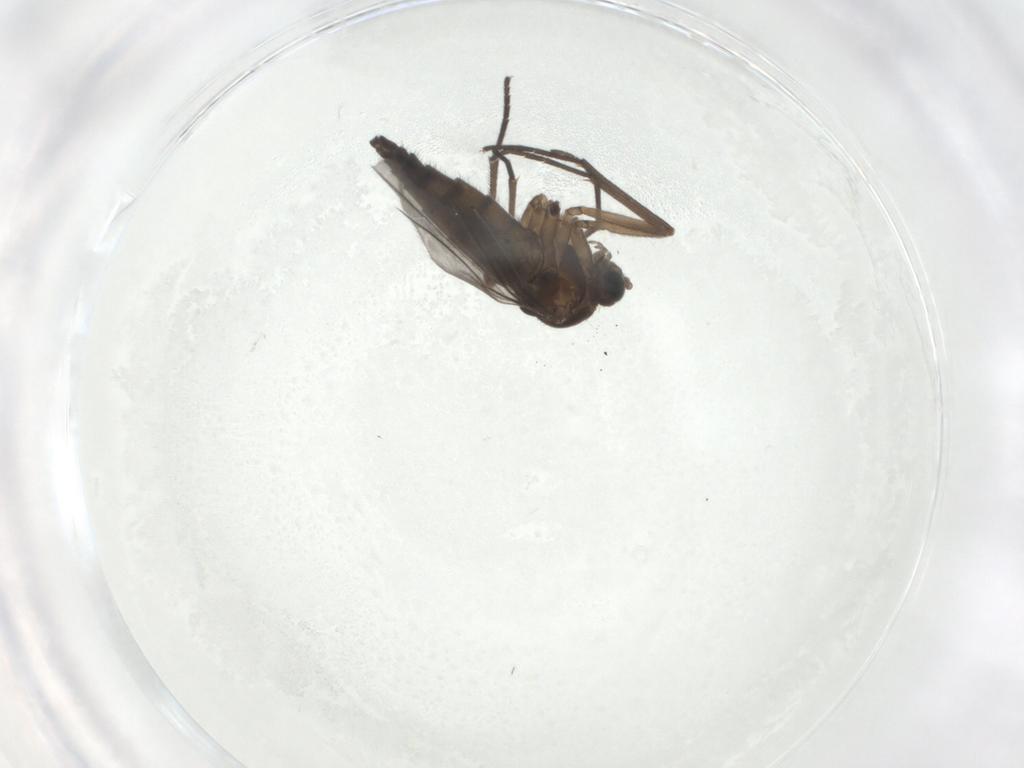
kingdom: Animalia
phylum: Arthropoda
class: Insecta
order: Diptera
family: Sciaridae
